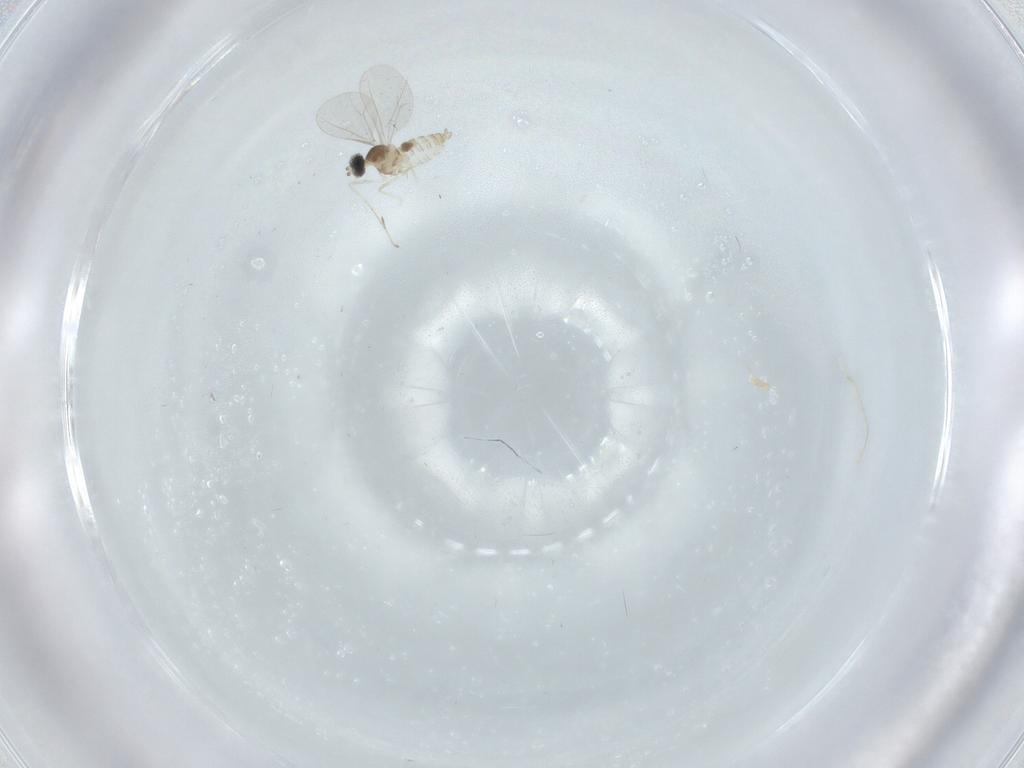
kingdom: Animalia
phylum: Arthropoda
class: Insecta
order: Diptera
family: Cecidomyiidae
